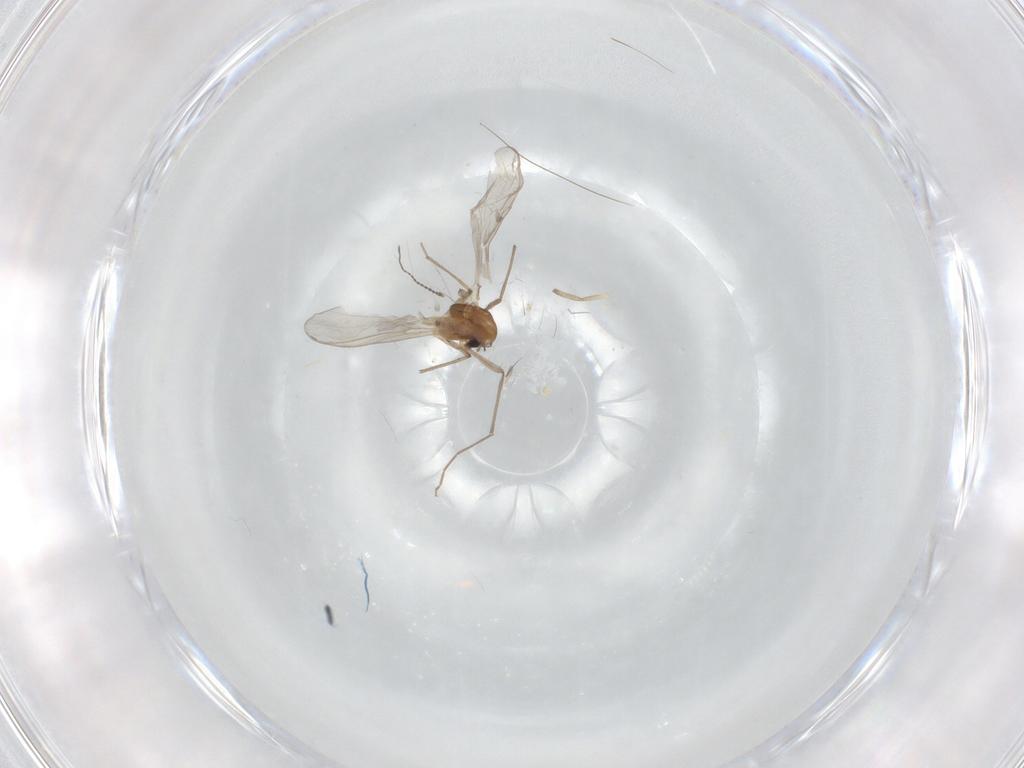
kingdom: Animalia
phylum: Arthropoda
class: Insecta
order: Diptera
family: Chironomidae
